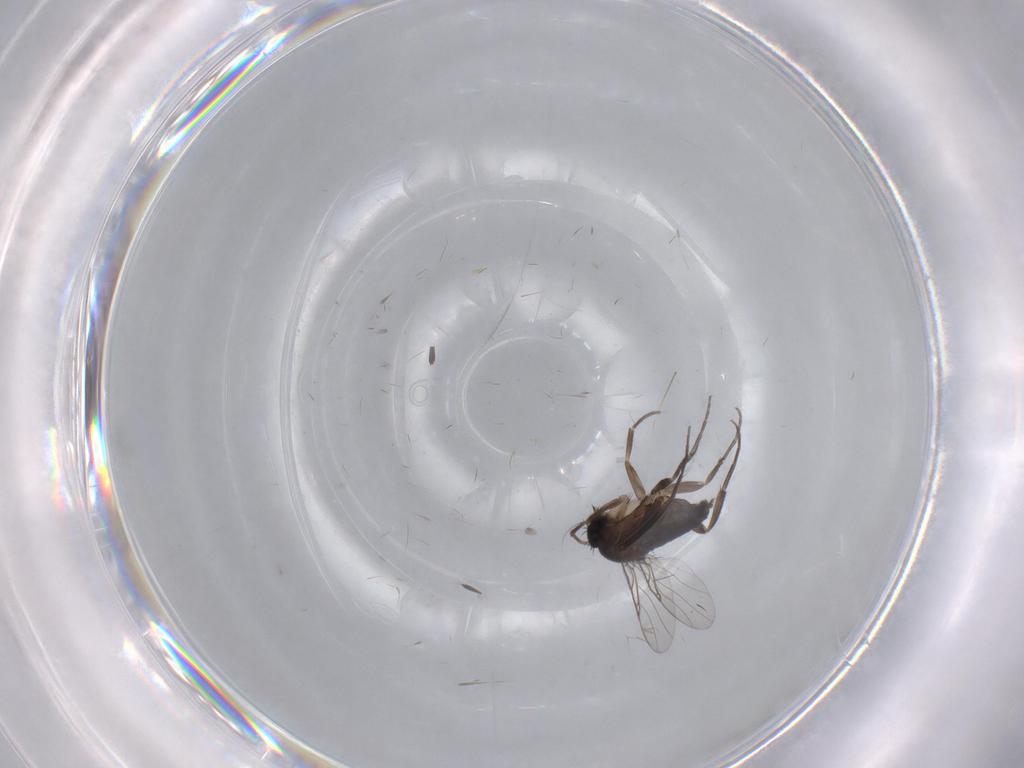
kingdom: Animalia
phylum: Arthropoda
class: Insecta
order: Diptera
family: Phoridae
